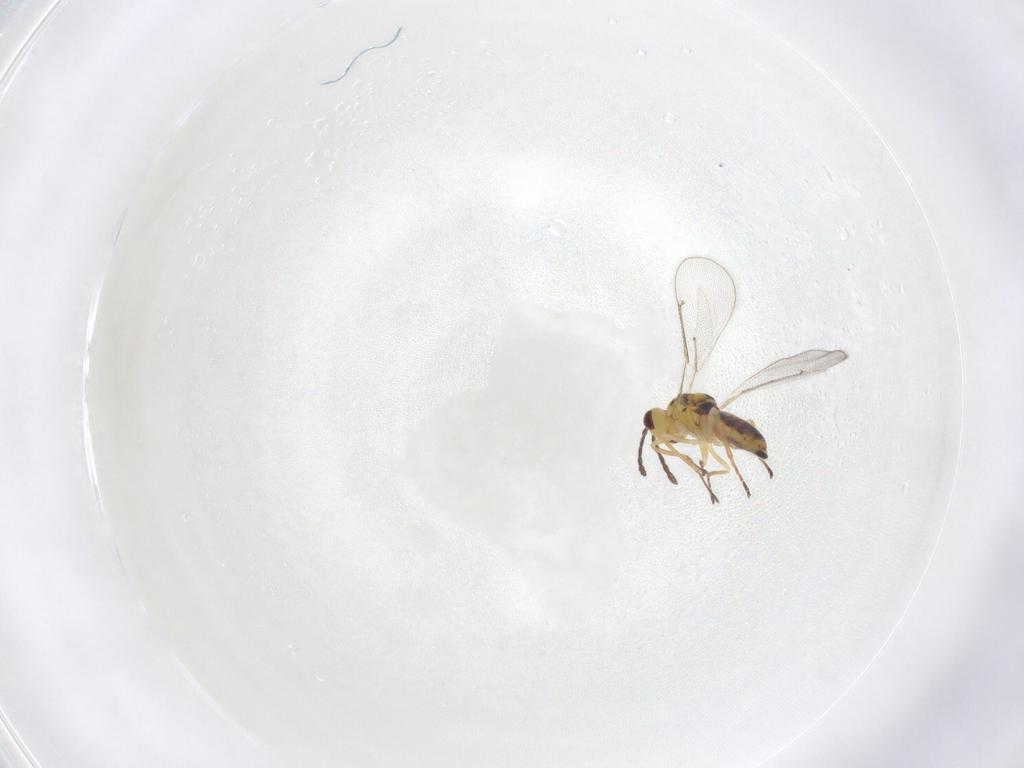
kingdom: Animalia
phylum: Arthropoda
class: Insecta
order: Hymenoptera
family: Eulophidae
